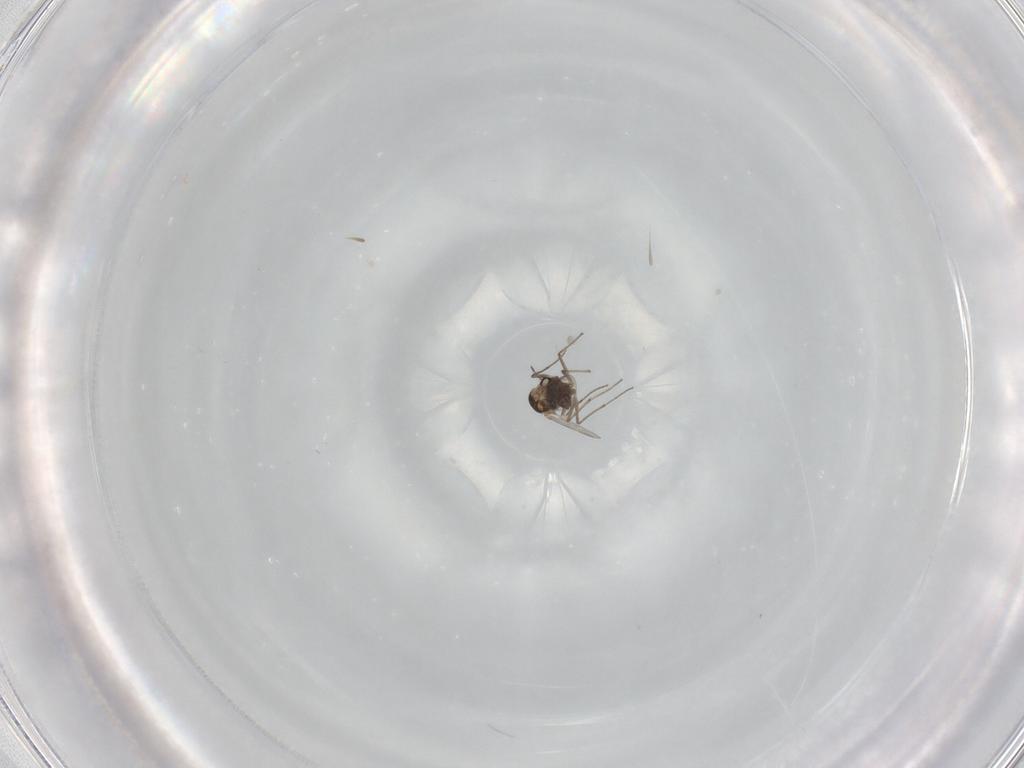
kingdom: Animalia
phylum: Arthropoda
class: Insecta
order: Diptera
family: Chironomidae
